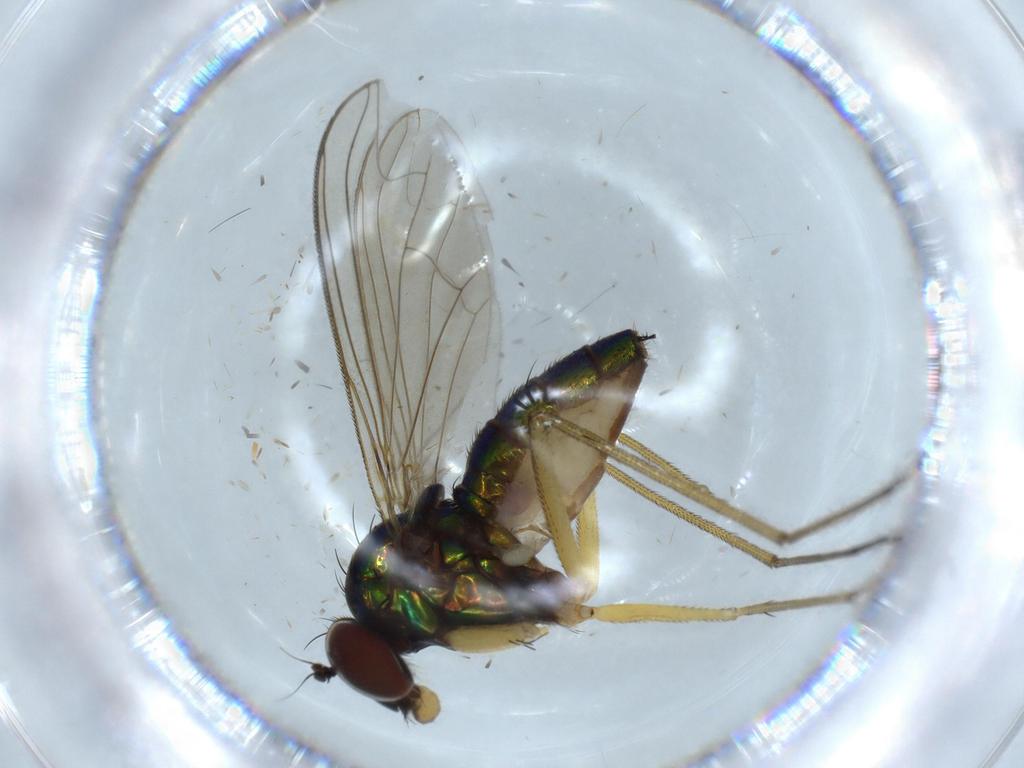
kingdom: Animalia
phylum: Arthropoda
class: Insecta
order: Diptera
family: Dolichopodidae
